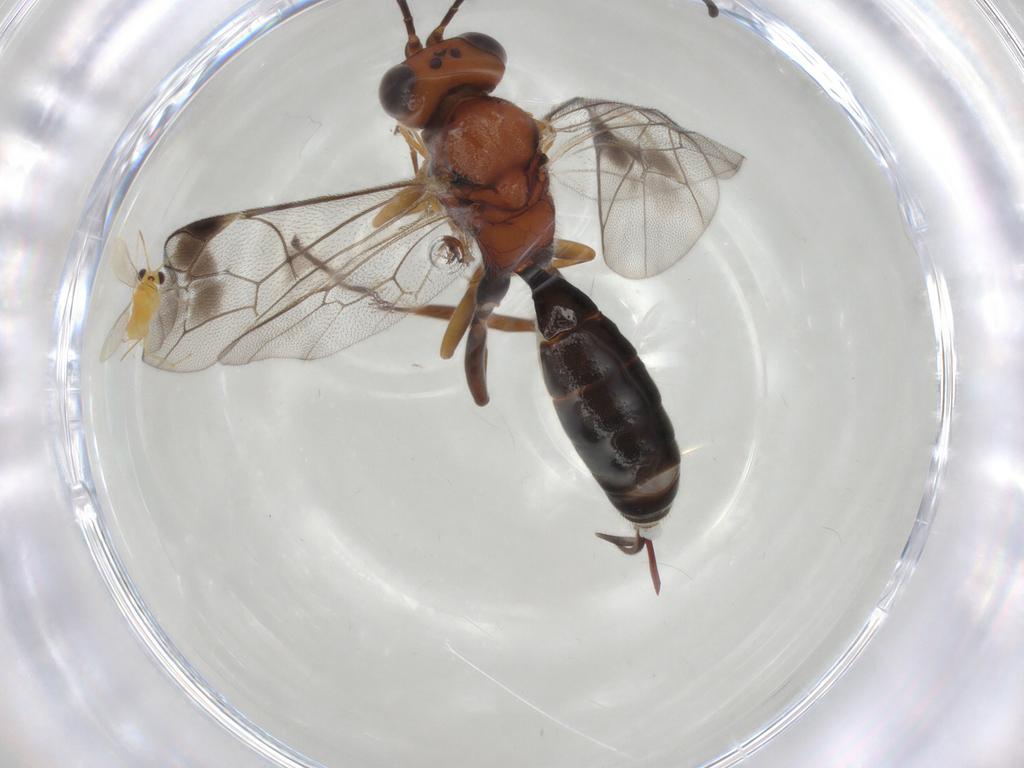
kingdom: Animalia
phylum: Arthropoda
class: Insecta
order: Hymenoptera
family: Ichneumonidae
